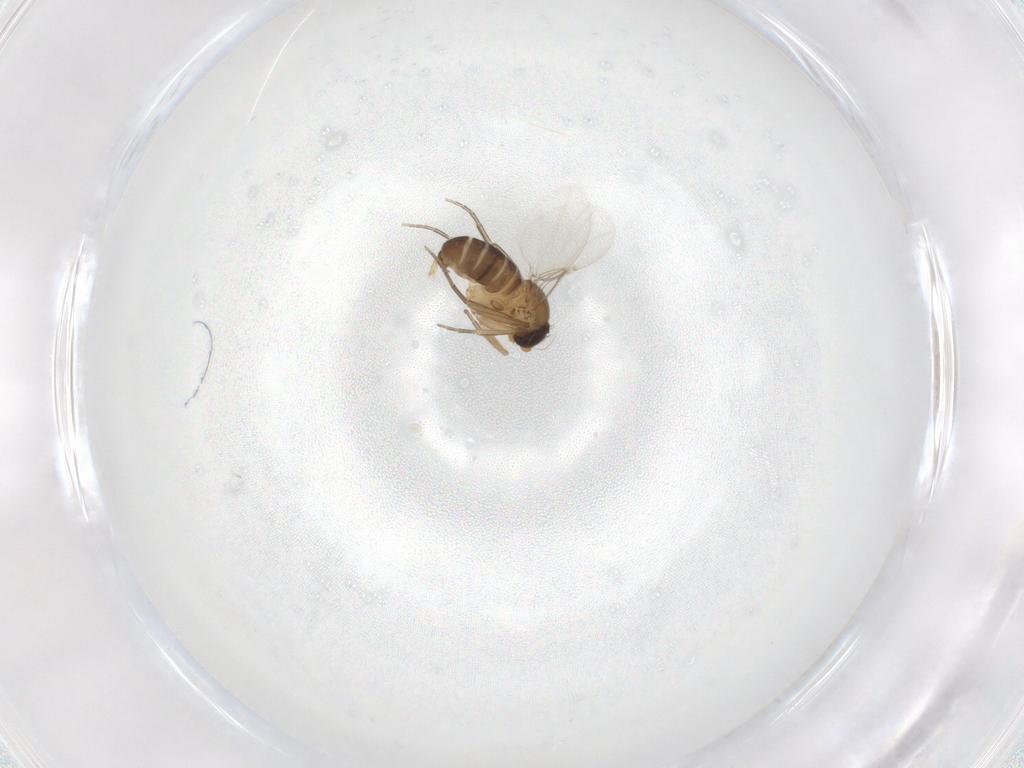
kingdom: Animalia
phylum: Arthropoda
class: Insecta
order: Diptera
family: Phoridae
